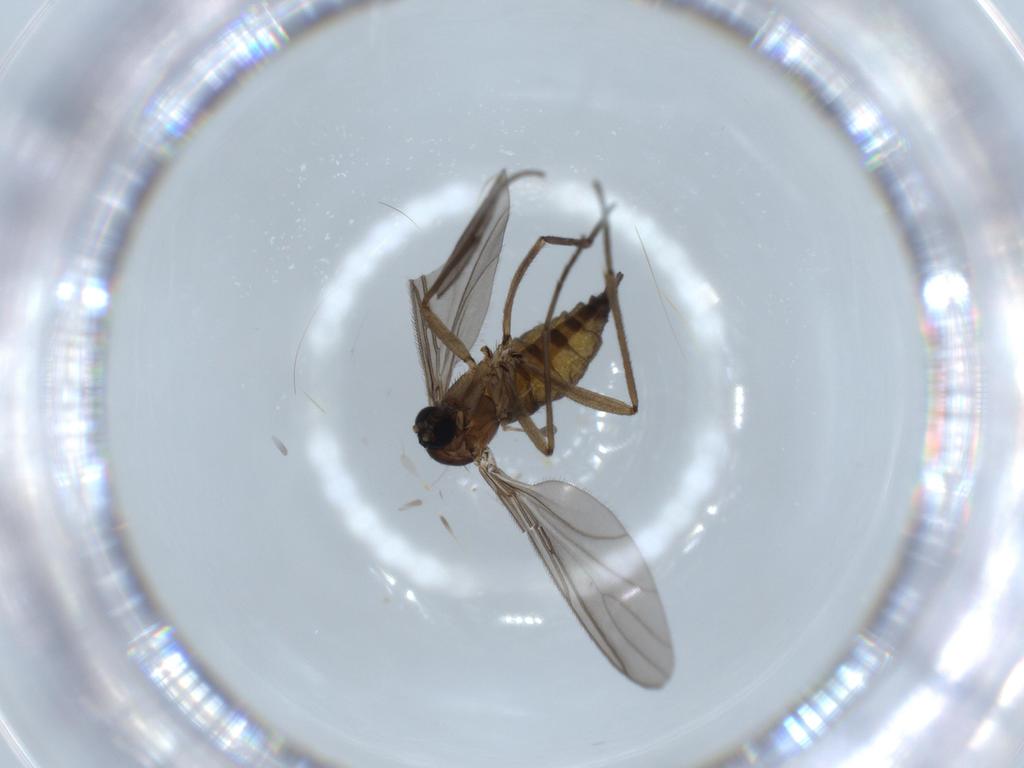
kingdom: Animalia
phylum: Arthropoda
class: Insecta
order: Diptera
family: Sciaridae
